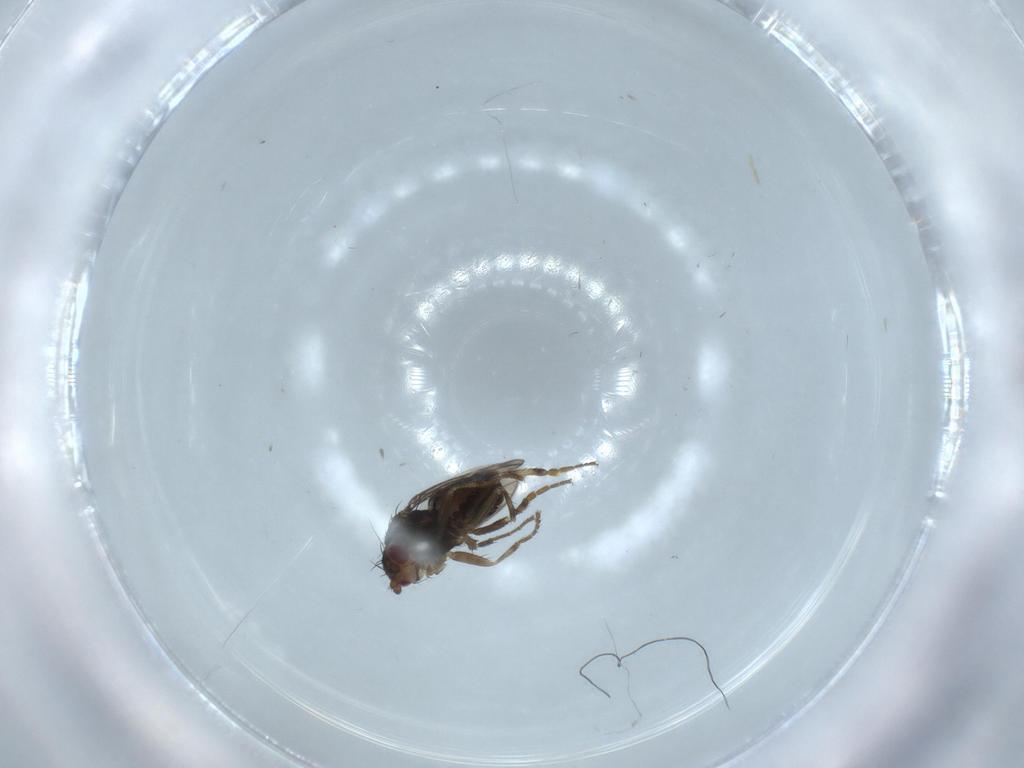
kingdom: Animalia
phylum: Arthropoda
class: Insecta
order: Diptera
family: Sphaeroceridae
